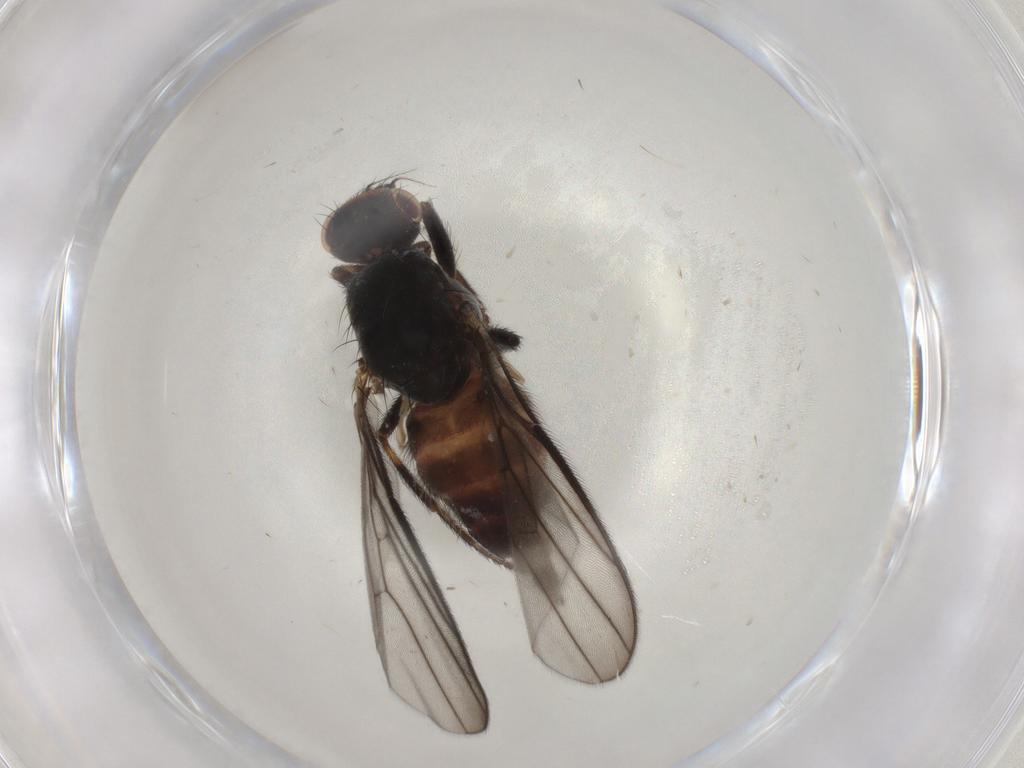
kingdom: Animalia
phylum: Arthropoda
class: Insecta
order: Diptera
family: Chloropidae
